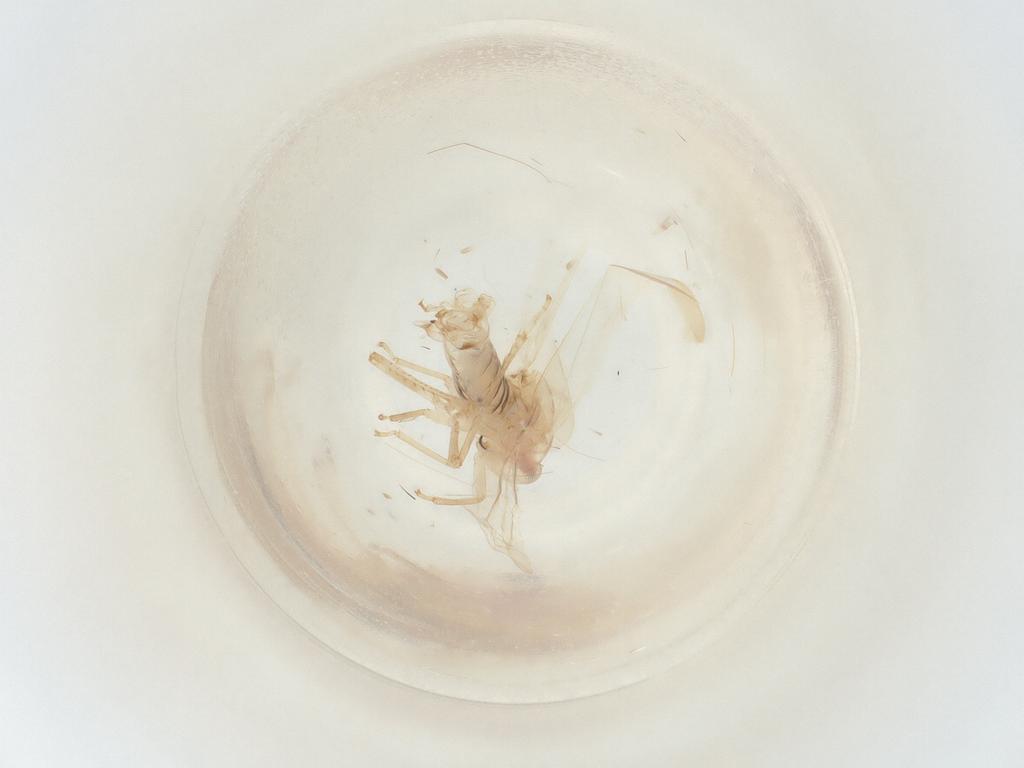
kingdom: Animalia
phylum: Arthropoda
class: Insecta
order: Hemiptera
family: Cicadellidae
